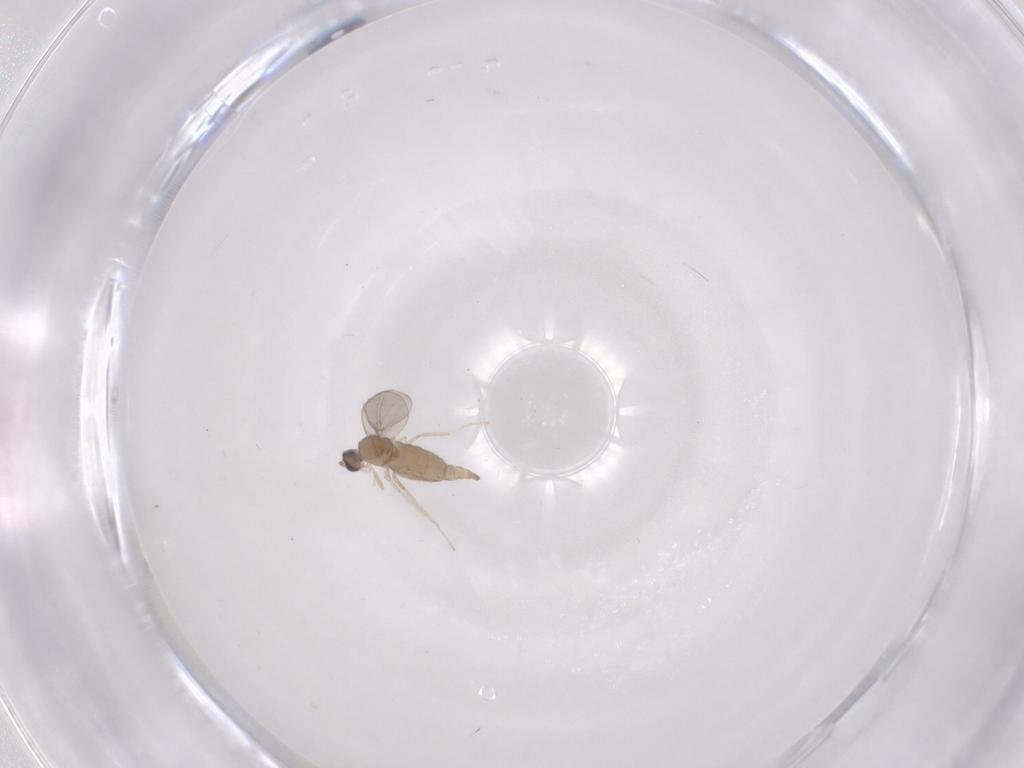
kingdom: Animalia
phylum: Arthropoda
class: Insecta
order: Diptera
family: Cecidomyiidae
